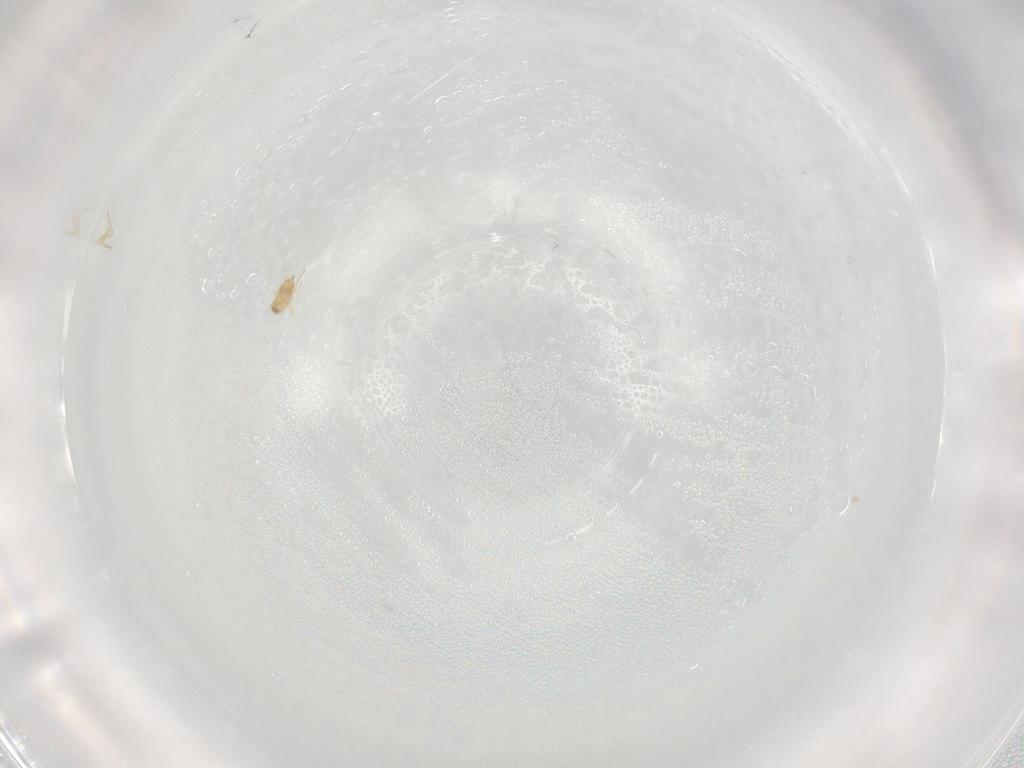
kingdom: Animalia
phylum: Arthropoda
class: Insecta
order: Hymenoptera
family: Mymaridae
